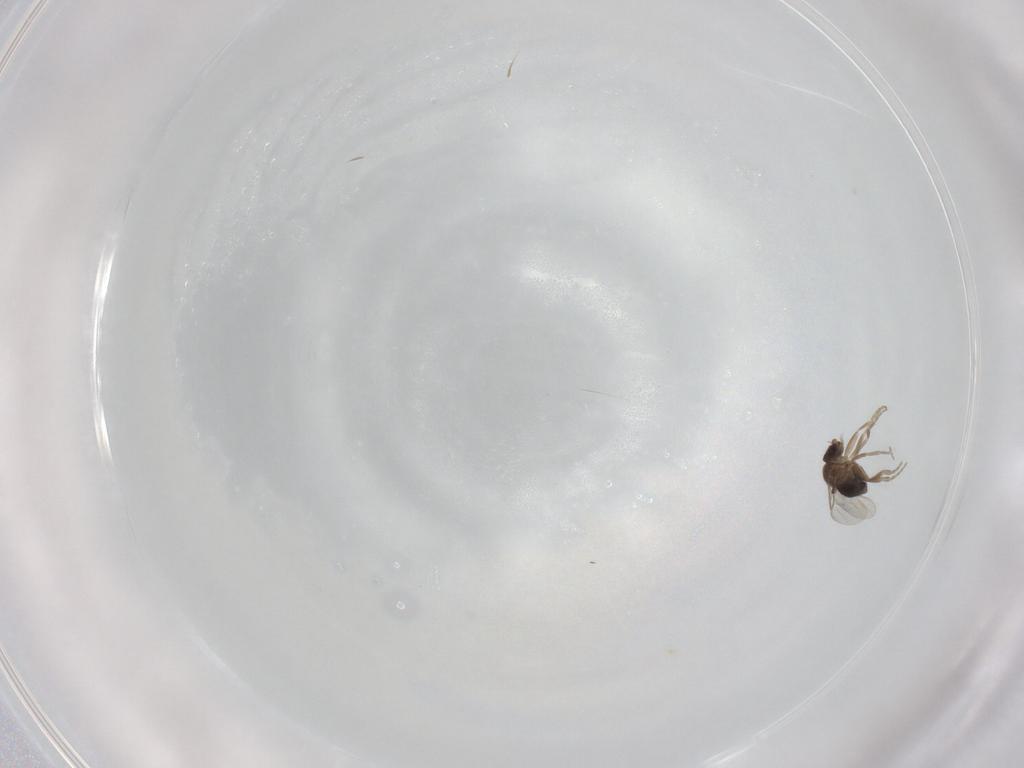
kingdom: Animalia
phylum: Arthropoda
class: Insecta
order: Diptera
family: Phoridae
